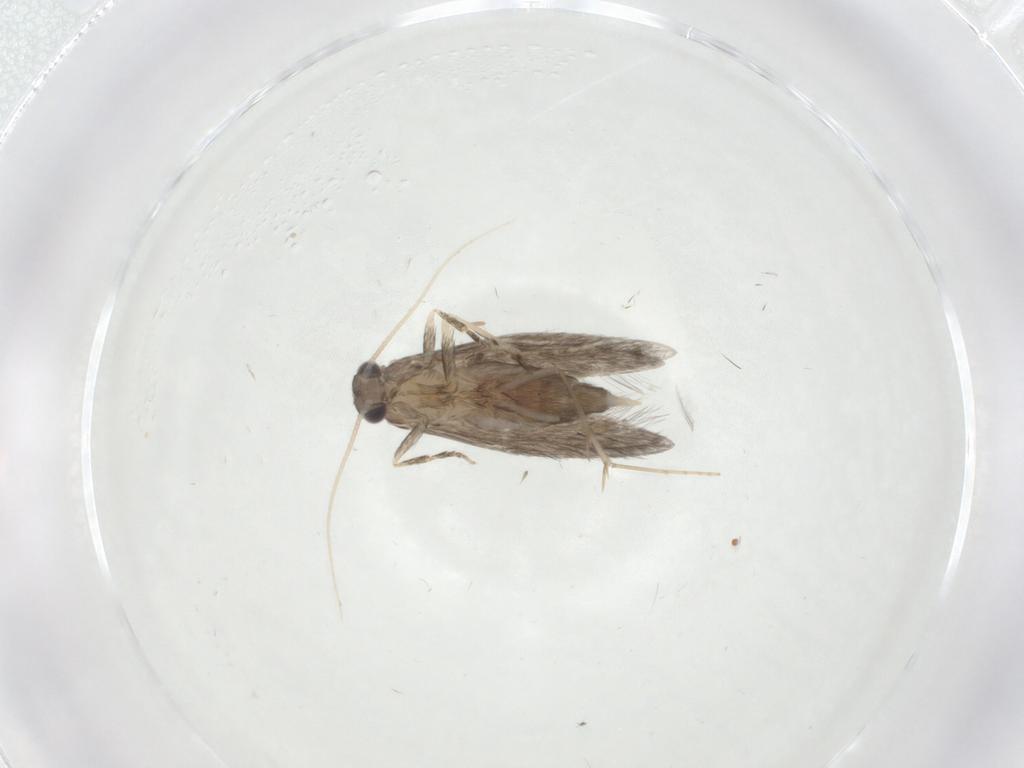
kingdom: Animalia
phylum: Arthropoda
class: Insecta
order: Trichoptera
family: Hydroptilidae
